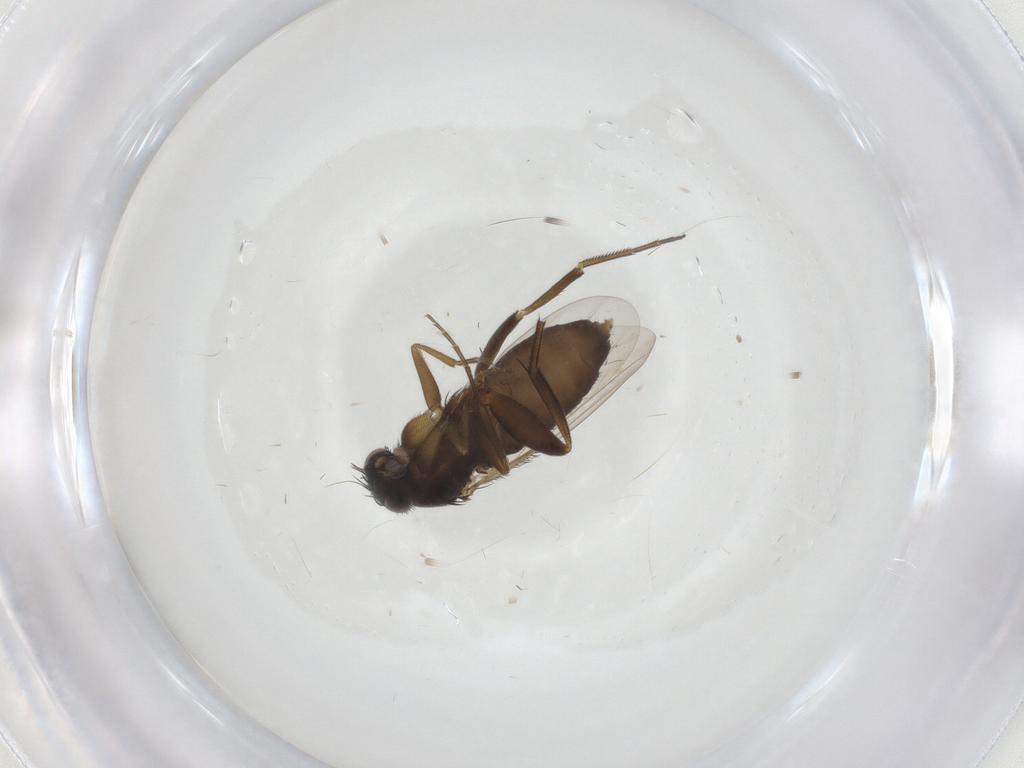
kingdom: Animalia
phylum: Arthropoda
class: Insecta
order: Diptera
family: Phoridae
